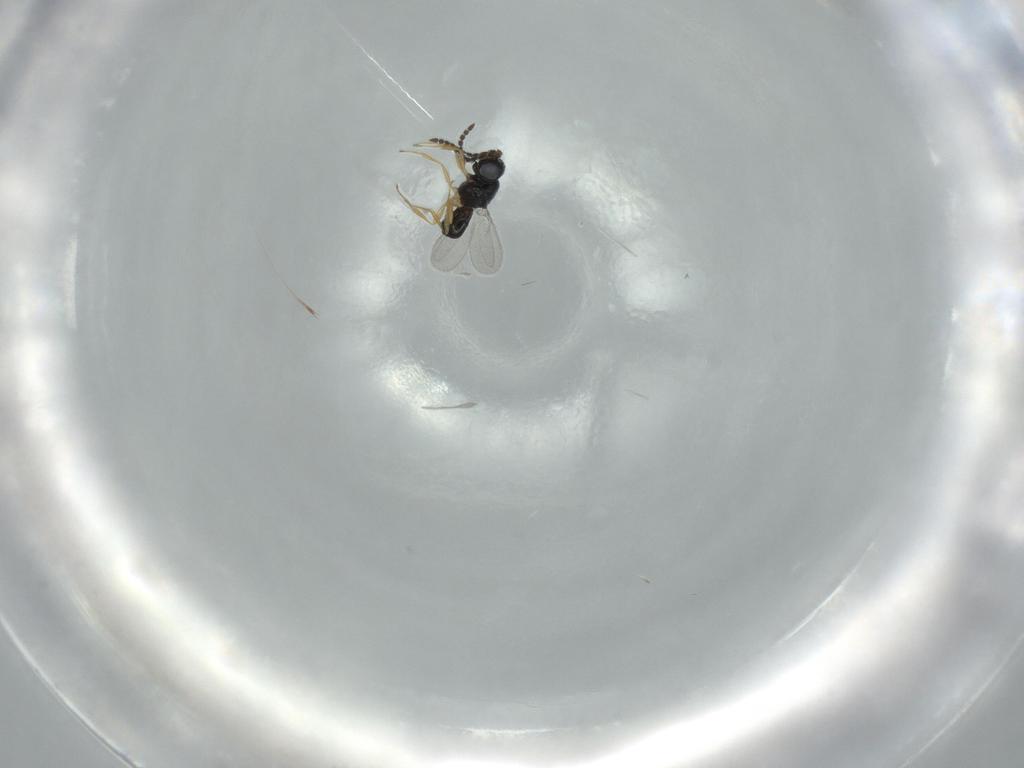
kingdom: Animalia
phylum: Arthropoda
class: Insecta
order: Hymenoptera
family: Scelionidae
